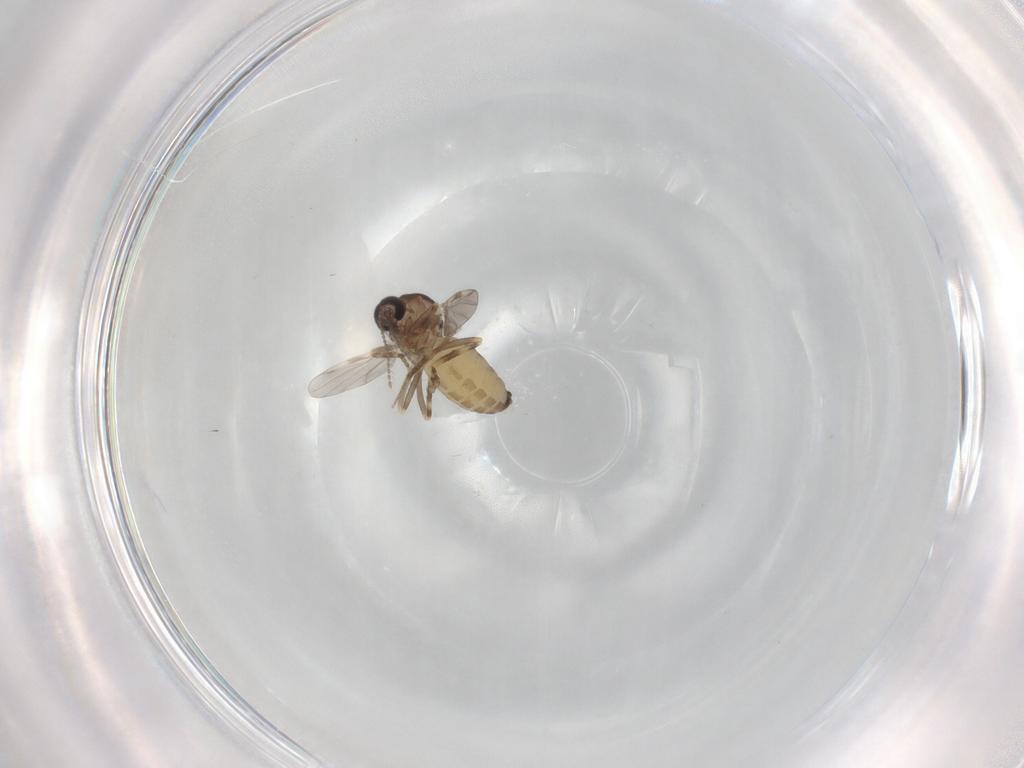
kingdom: Animalia
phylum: Arthropoda
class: Insecta
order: Diptera
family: Ceratopogonidae
